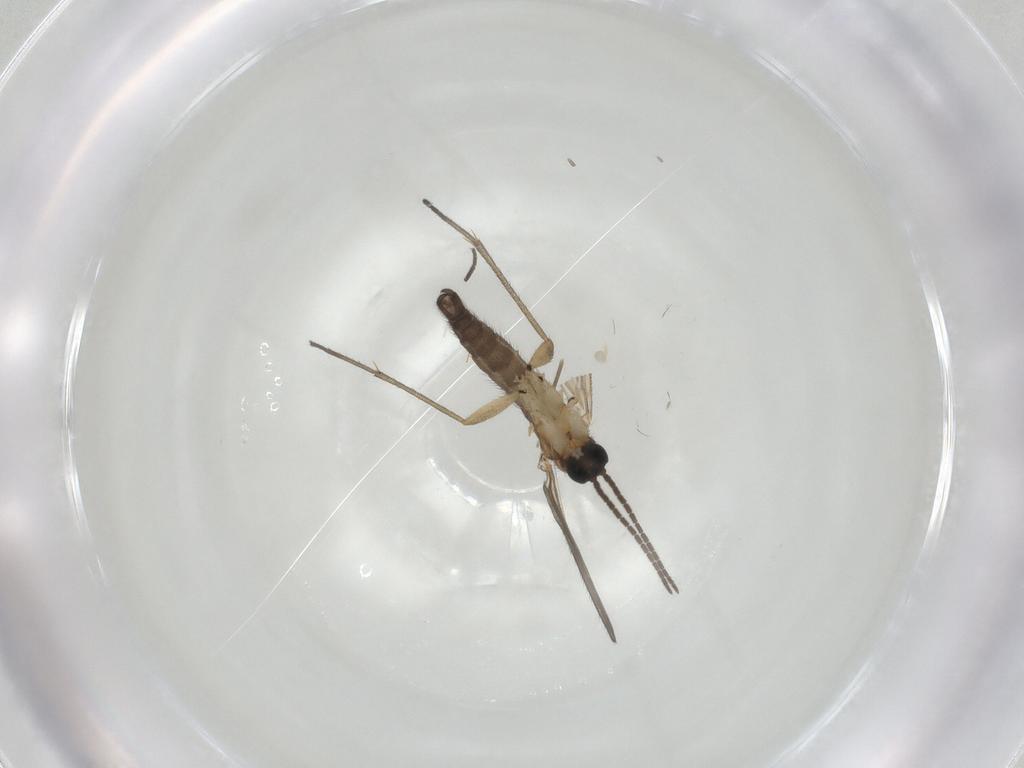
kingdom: Animalia
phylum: Arthropoda
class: Insecta
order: Diptera
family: Phoridae
